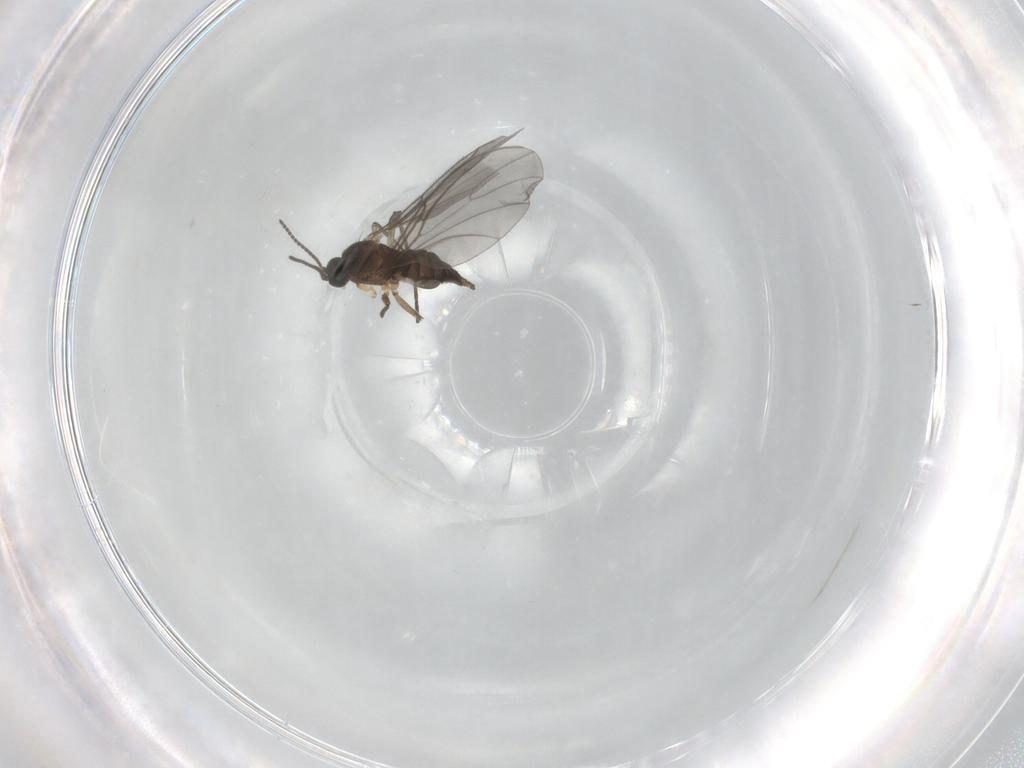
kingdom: Animalia
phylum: Arthropoda
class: Insecta
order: Diptera
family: Sciaridae
